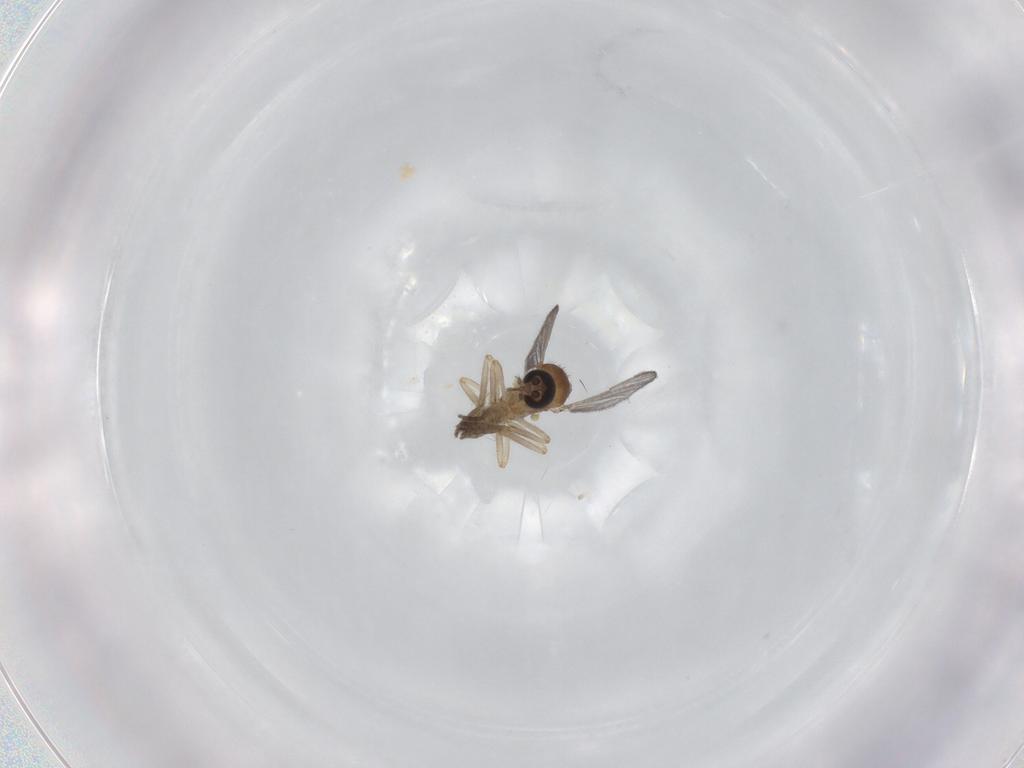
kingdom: Animalia
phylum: Arthropoda
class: Insecta
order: Diptera
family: Ceratopogonidae
